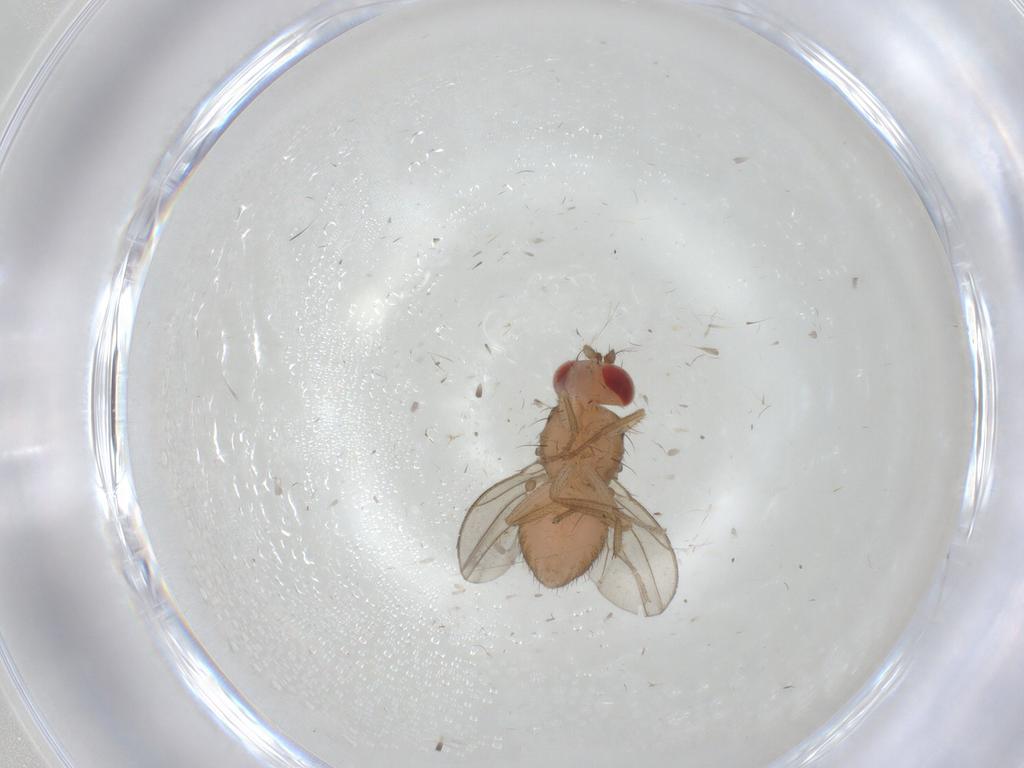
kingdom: Animalia
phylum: Arthropoda
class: Insecta
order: Diptera
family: Drosophilidae
